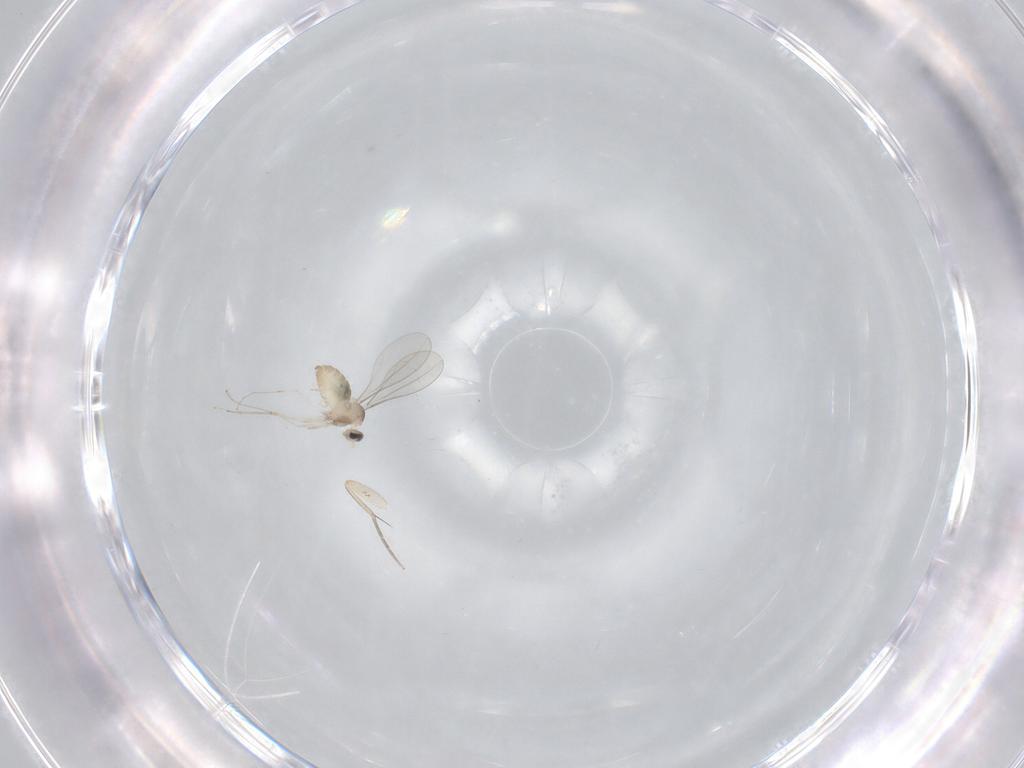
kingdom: Animalia
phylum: Arthropoda
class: Insecta
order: Diptera
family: Cecidomyiidae
